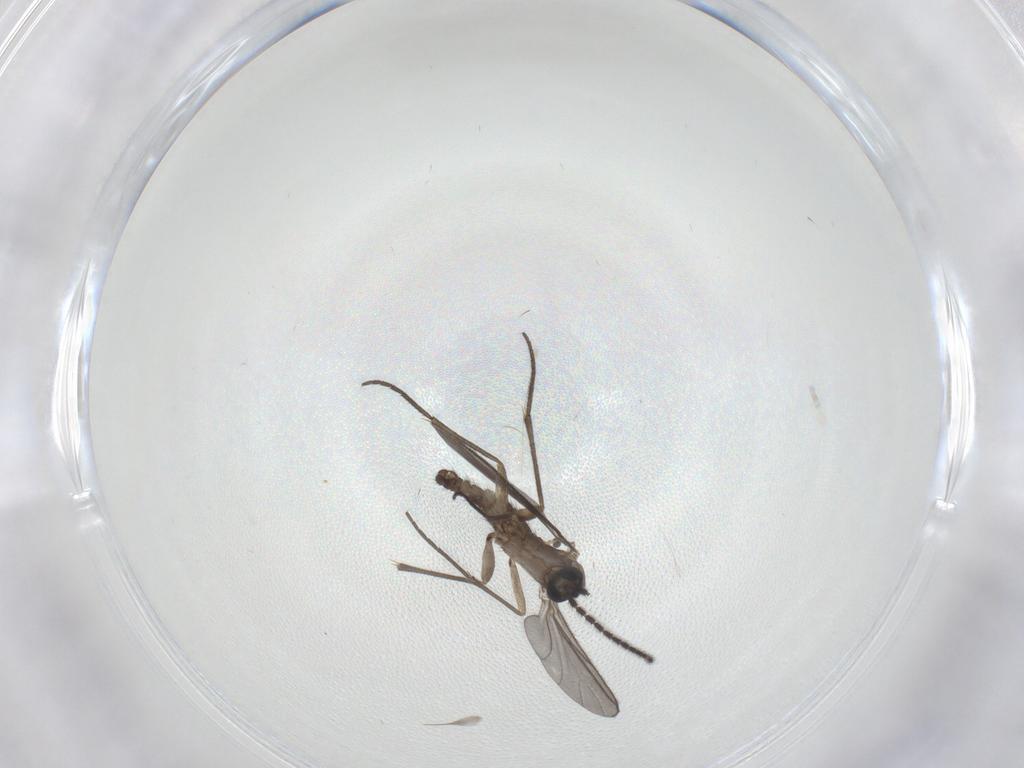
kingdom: Animalia
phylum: Arthropoda
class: Insecta
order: Diptera
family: Sciaridae
